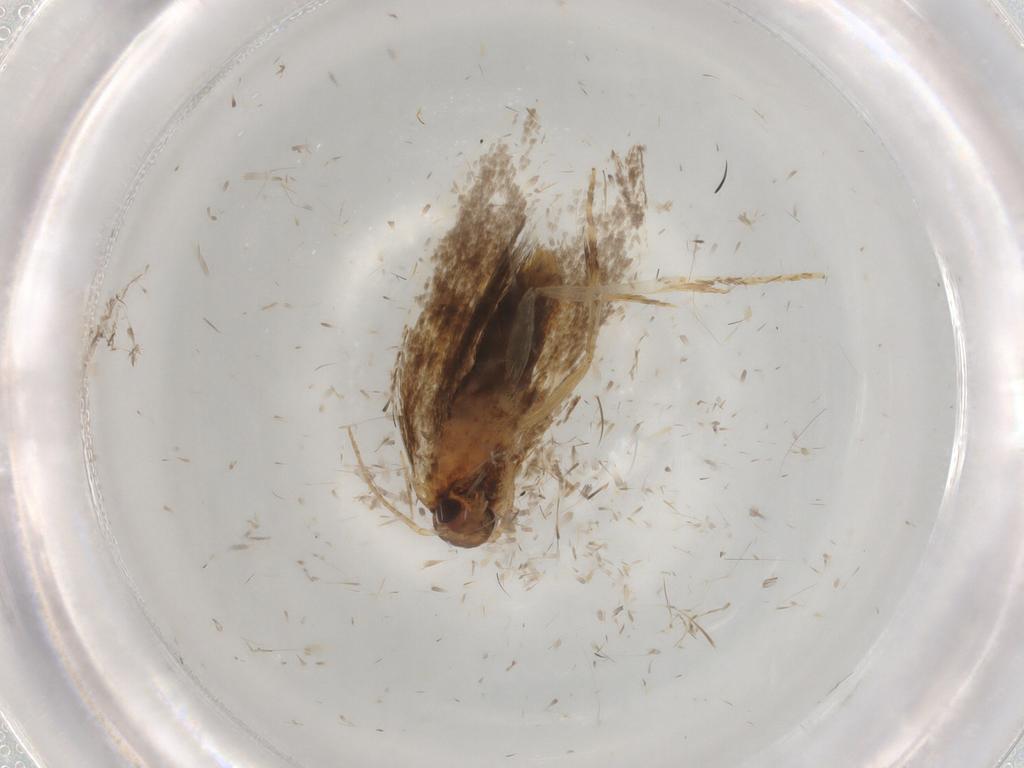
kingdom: Animalia
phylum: Arthropoda
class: Insecta
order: Lepidoptera
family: Oecophoridae
